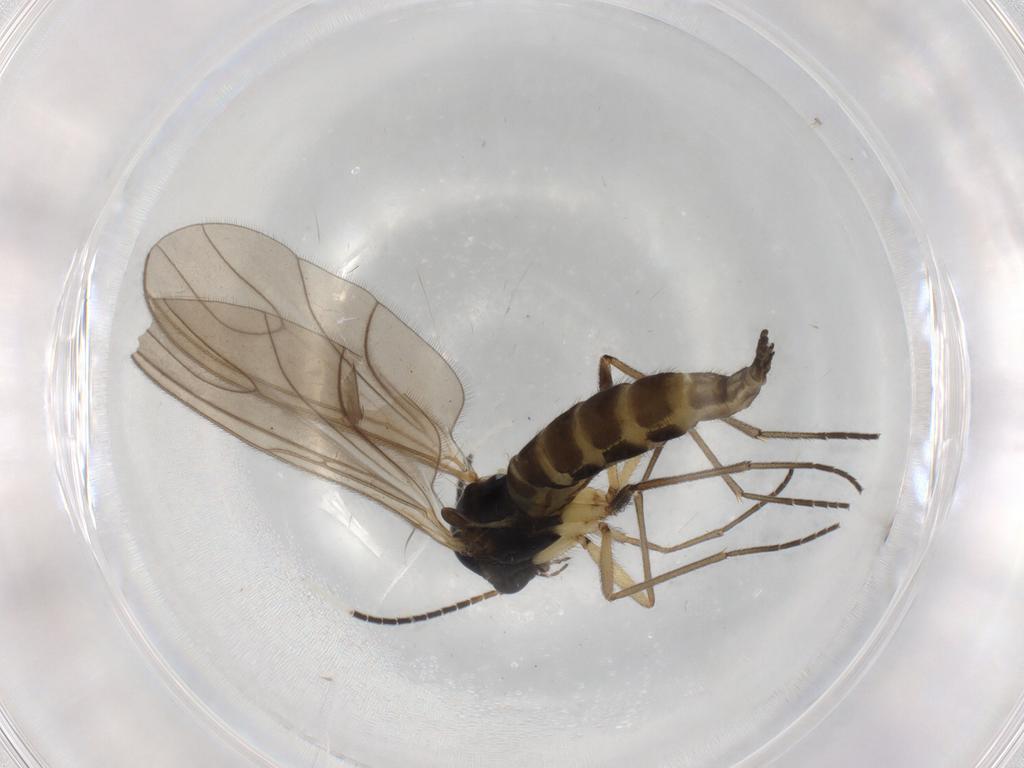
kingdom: Animalia
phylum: Arthropoda
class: Insecta
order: Diptera
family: Sciaridae
